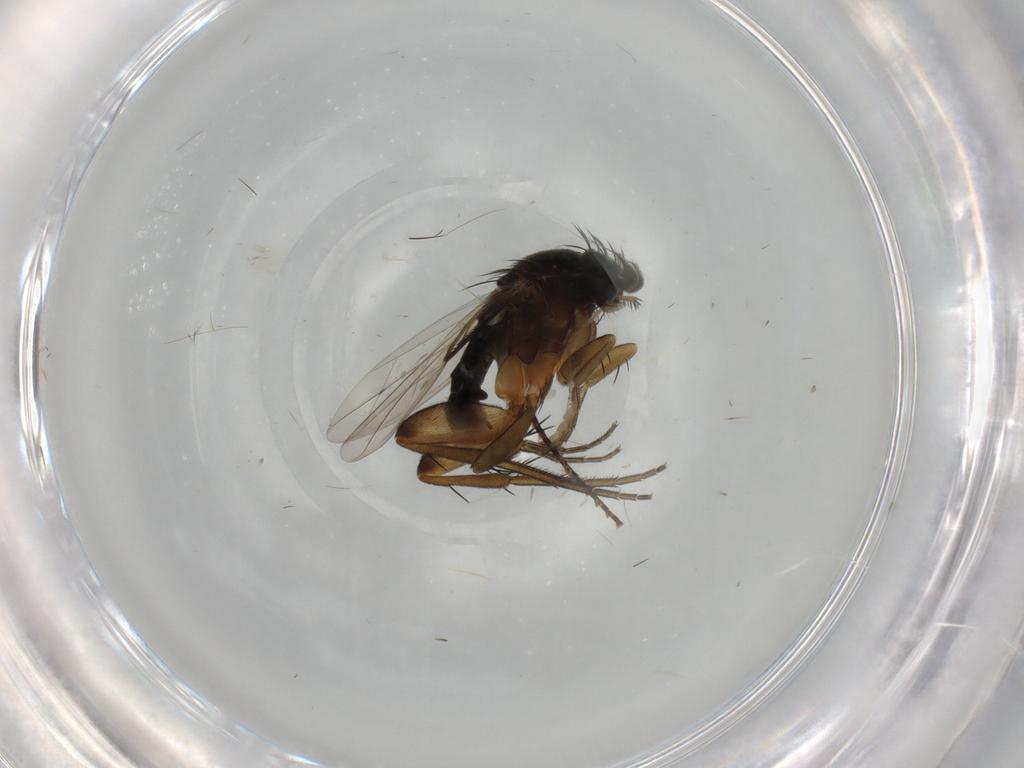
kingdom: Animalia
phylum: Arthropoda
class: Insecta
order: Diptera
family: Phoridae
